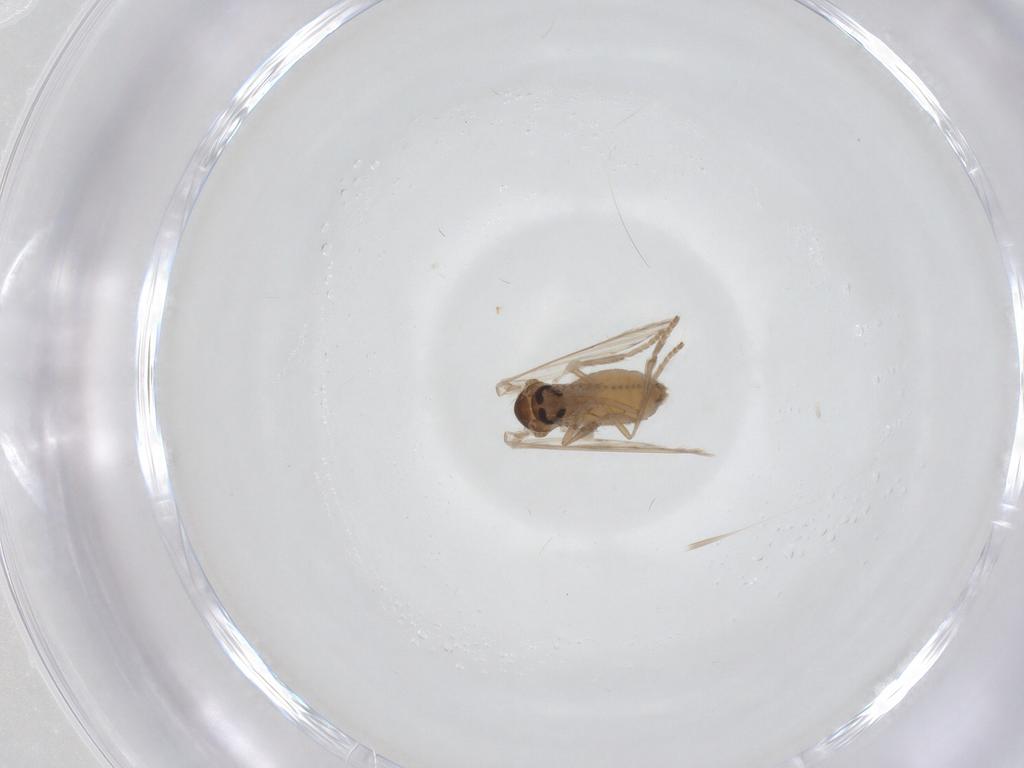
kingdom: Animalia
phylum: Arthropoda
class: Insecta
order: Diptera
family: Psychodidae
